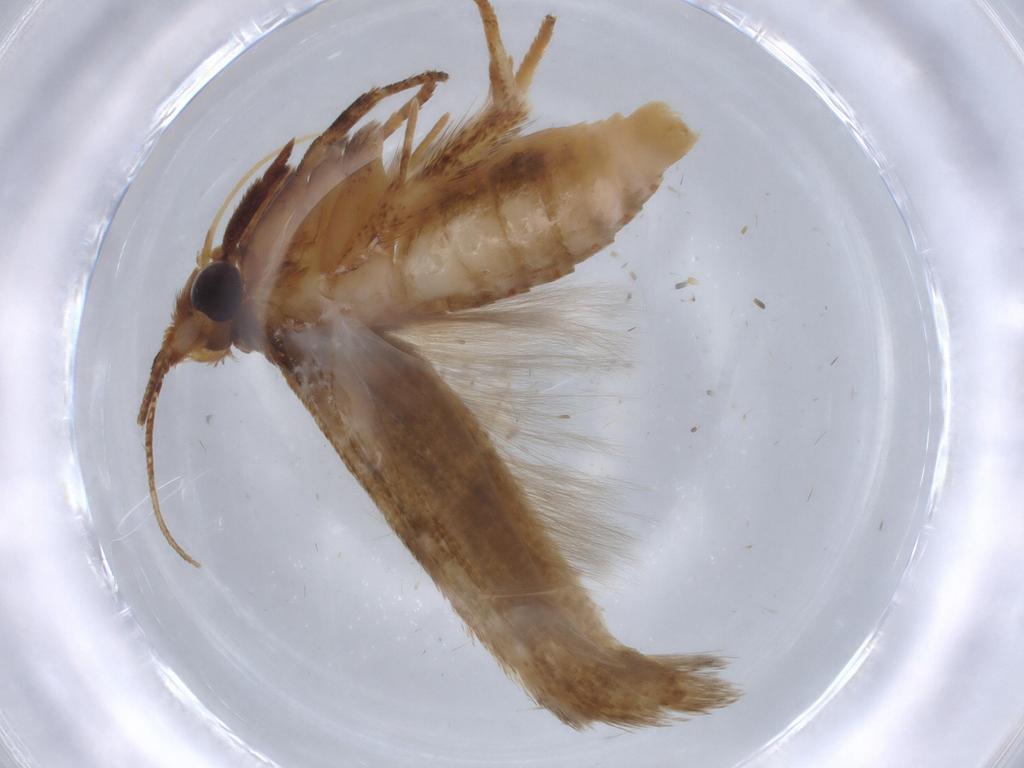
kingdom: Animalia
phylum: Arthropoda
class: Insecta
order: Lepidoptera
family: Blastobasidae
